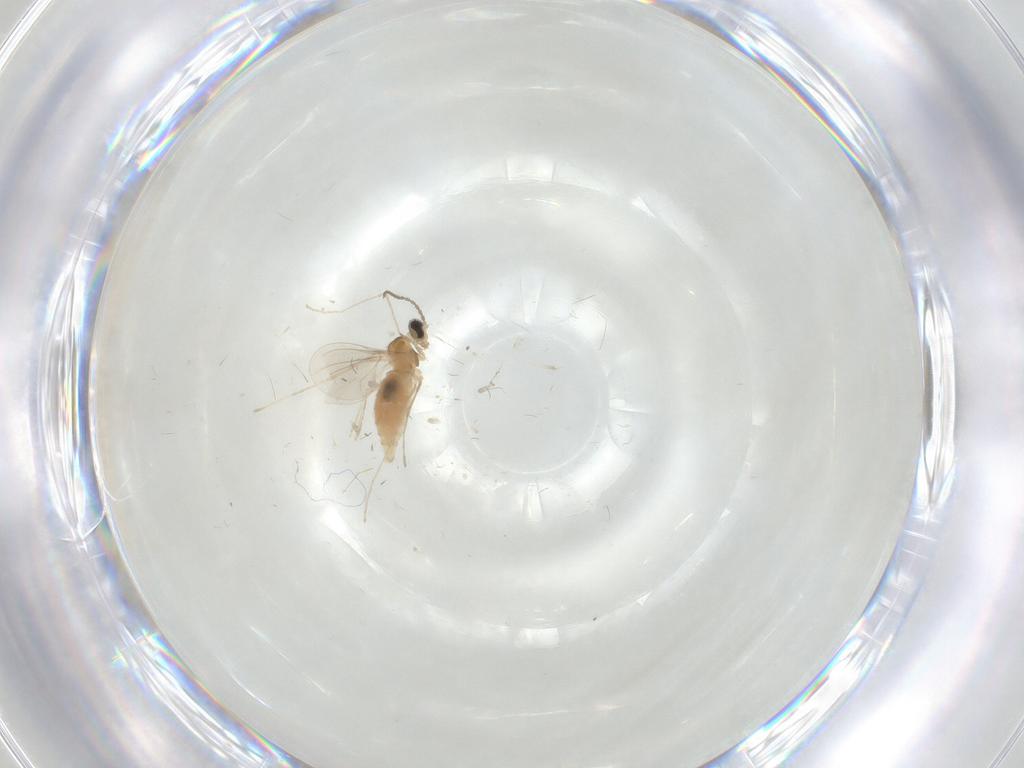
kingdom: Animalia
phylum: Arthropoda
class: Insecta
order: Diptera
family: Cecidomyiidae
